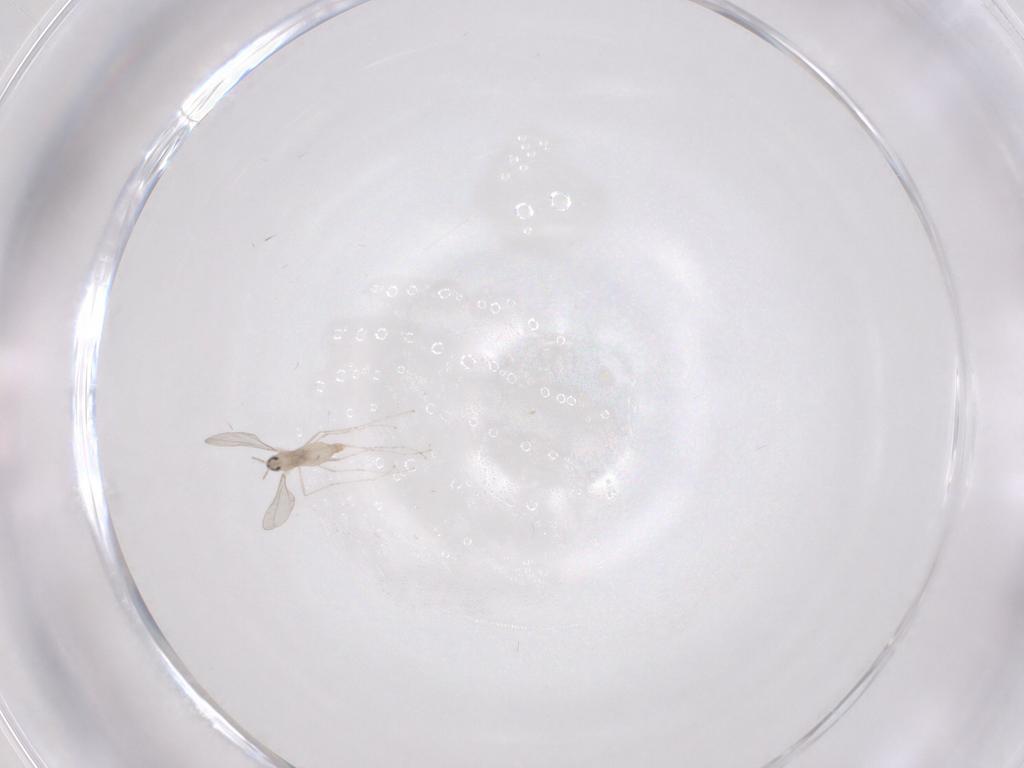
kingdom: Animalia
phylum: Arthropoda
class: Insecta
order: Diptera
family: Cecidomyiidae
